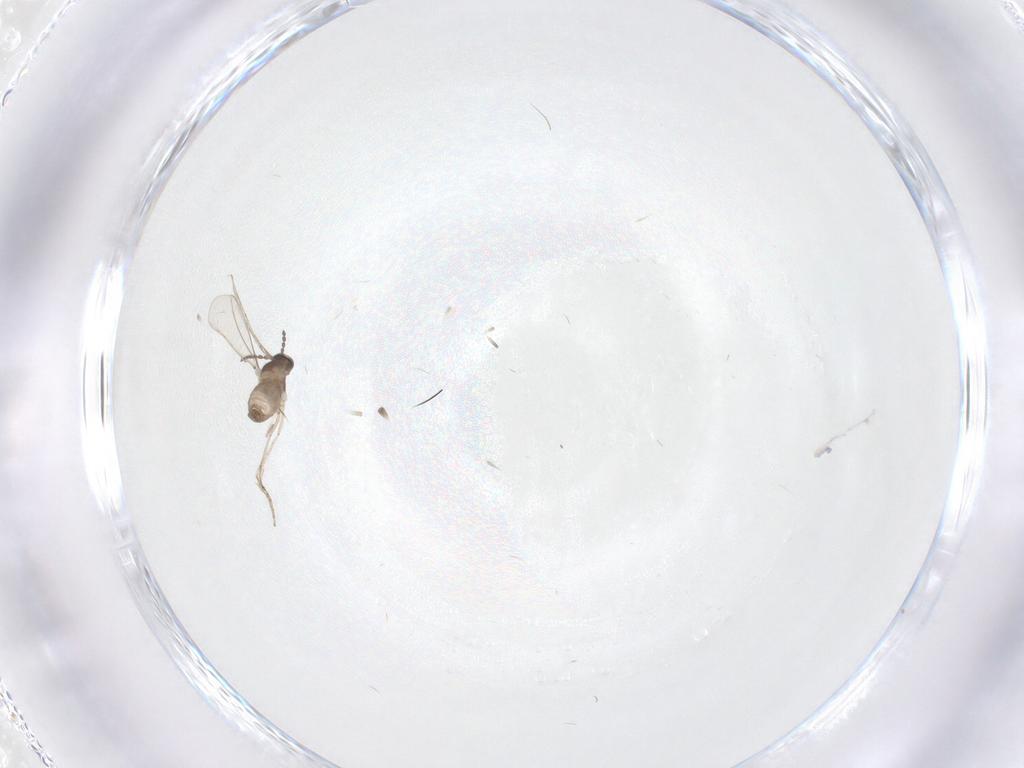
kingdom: Animalia
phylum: Arthropoda
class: Insecta
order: Diptera
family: Cecidomyiidae
